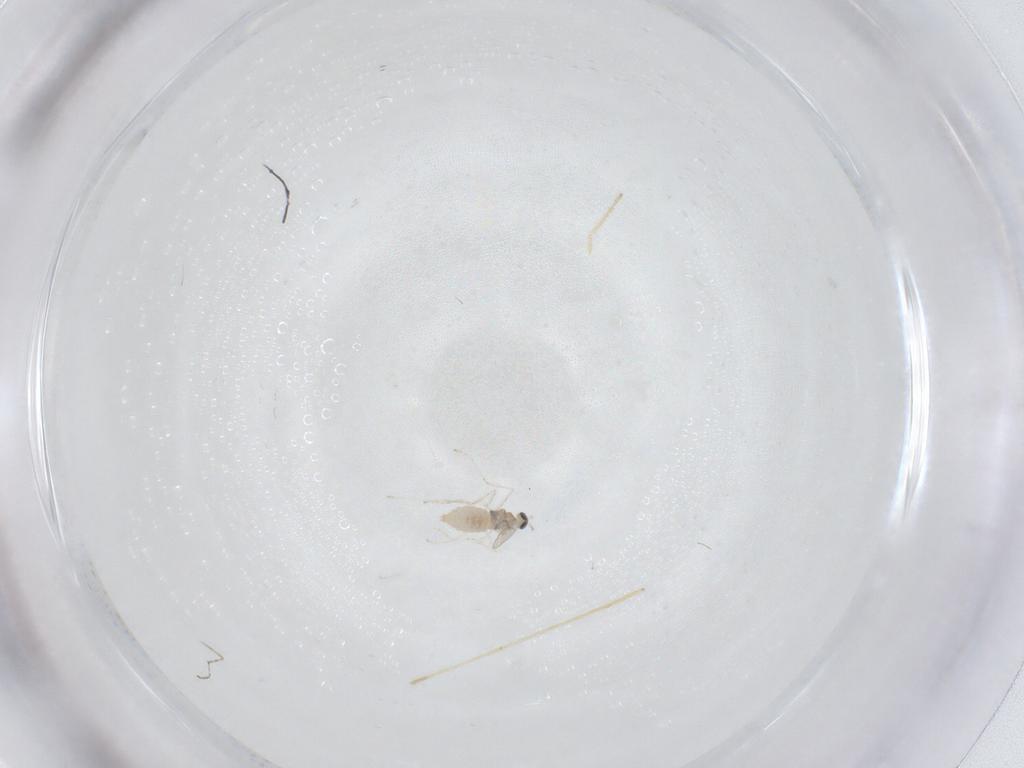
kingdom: Animalia
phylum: Arthropoda
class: Insecta
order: Diptera
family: Chironomidae
